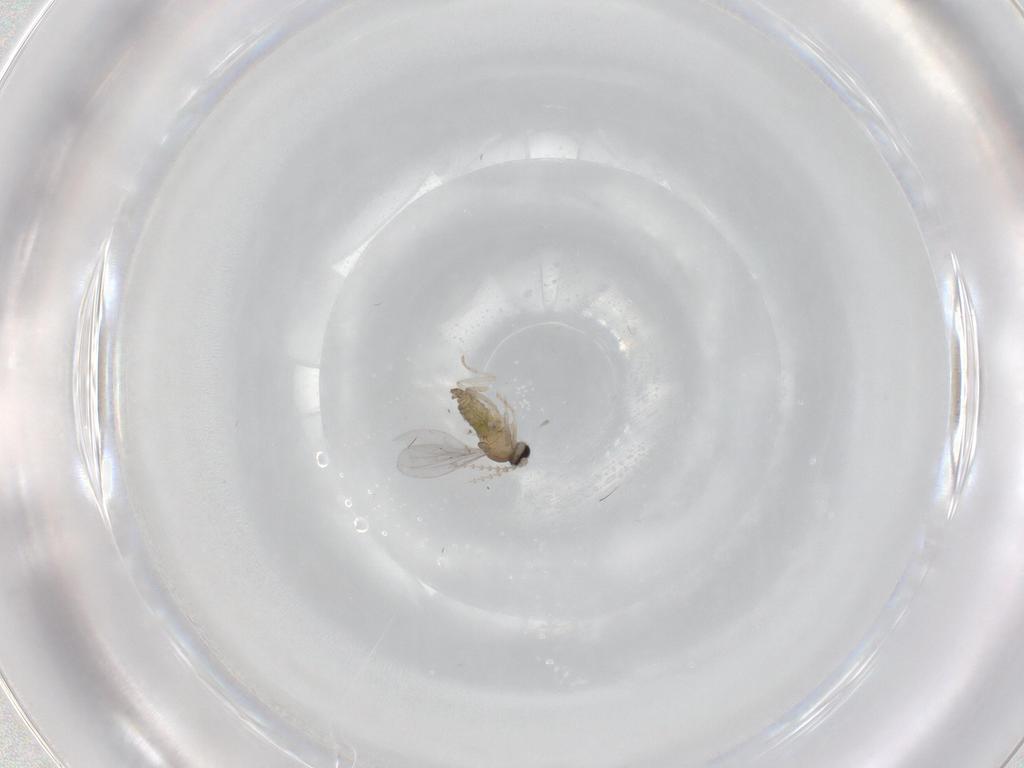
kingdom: Animalia
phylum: Arthropoda
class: Insecta
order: Diptera
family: Cecidomyiidae
